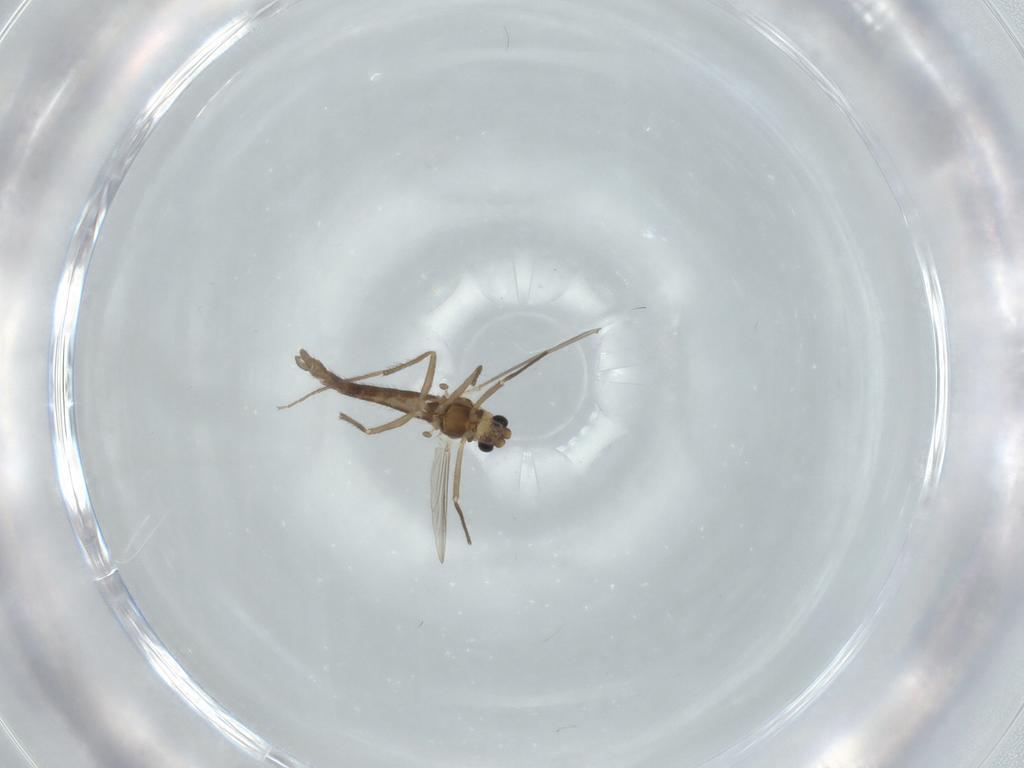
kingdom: Animalia
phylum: Arthropoda
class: Insecta
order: Diptera
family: Chironomidae
